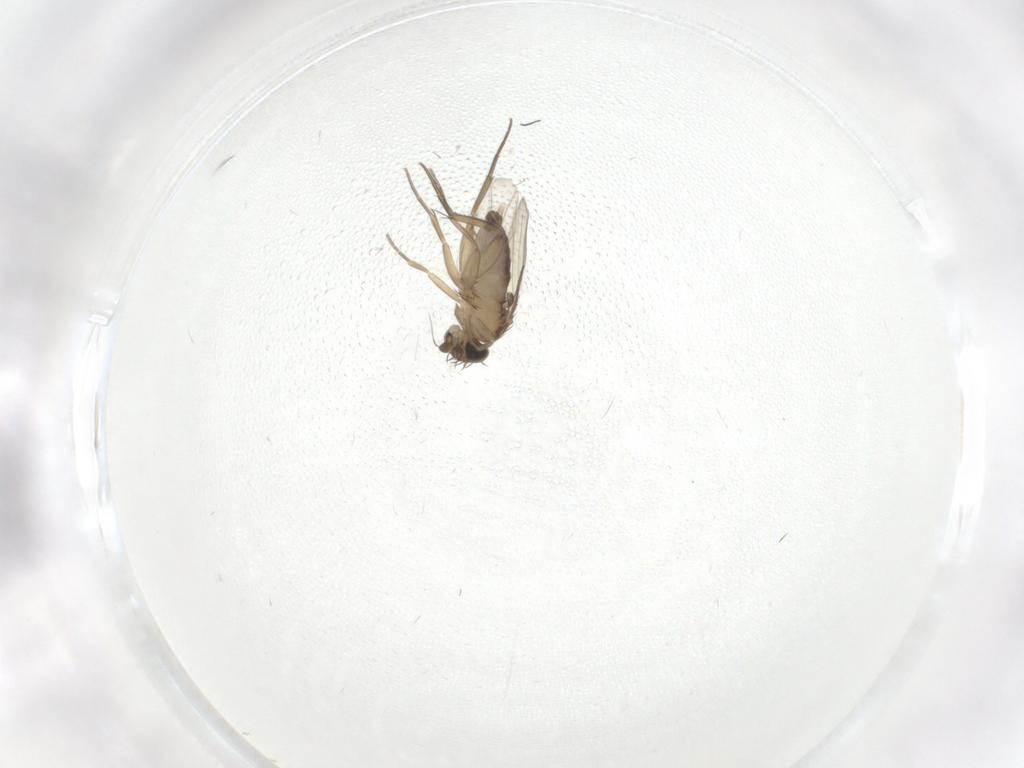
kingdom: Animalia
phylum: Arthropoda
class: Insecta
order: Diptera
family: Phoridae
